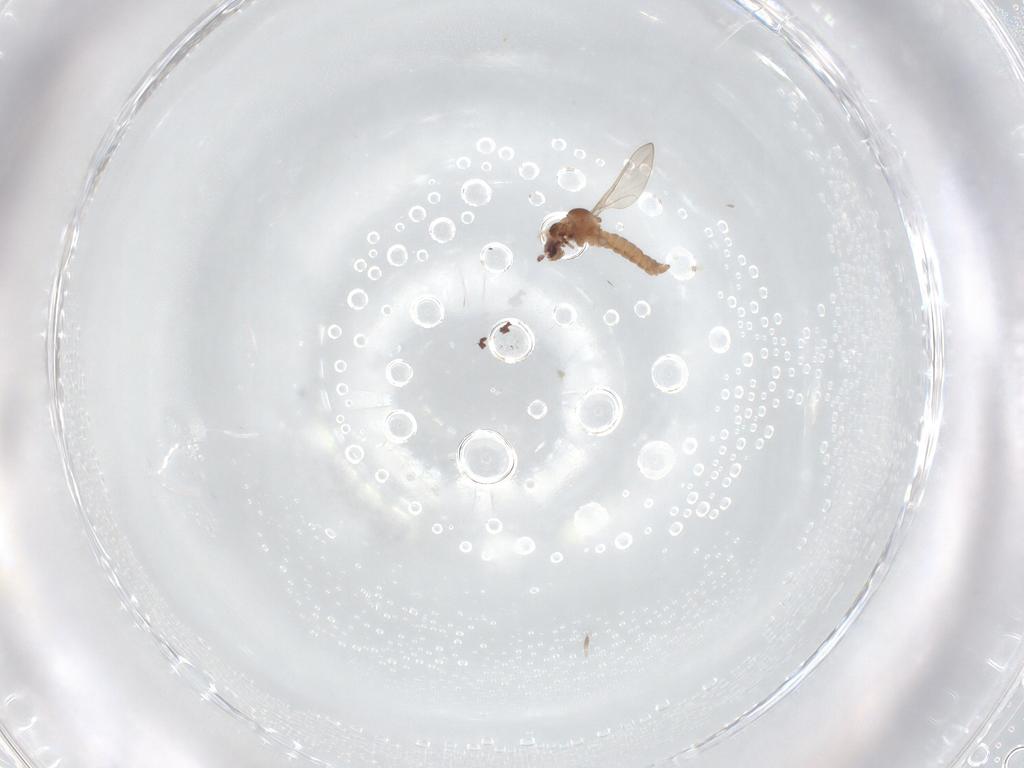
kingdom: Animalia
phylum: Arthropoda
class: Insecta
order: Diptera
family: Cecidomyiidae
